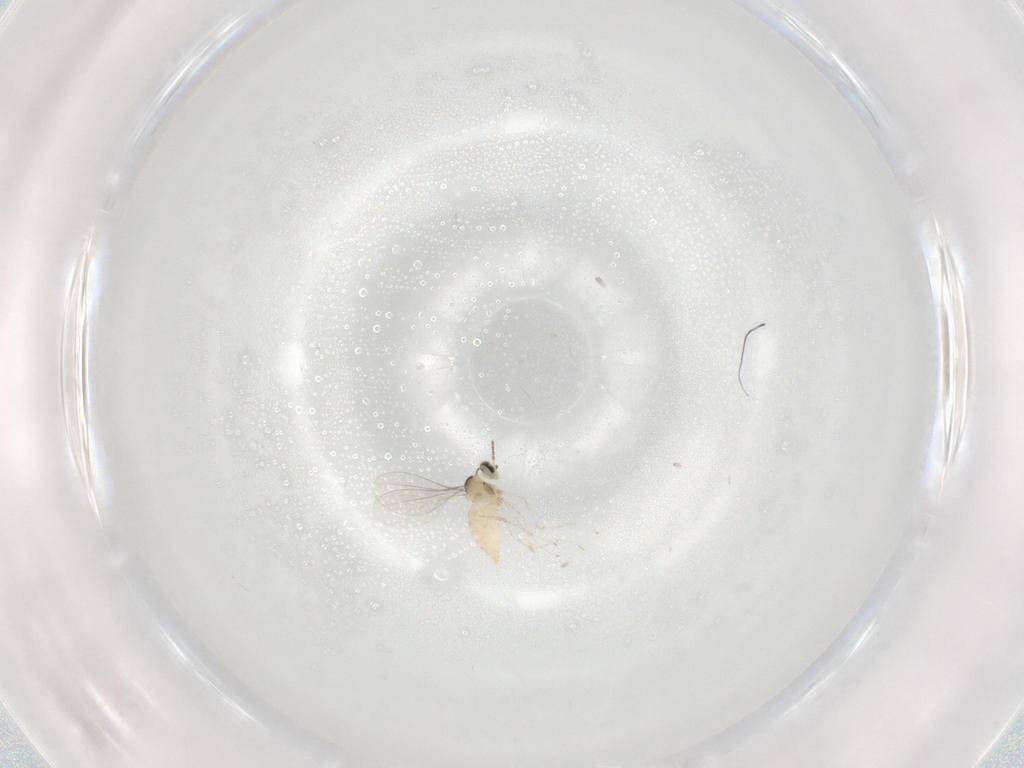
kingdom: Animalia
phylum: Arthropoda
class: Insecta
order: Diptera
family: Cecidomyiidae
